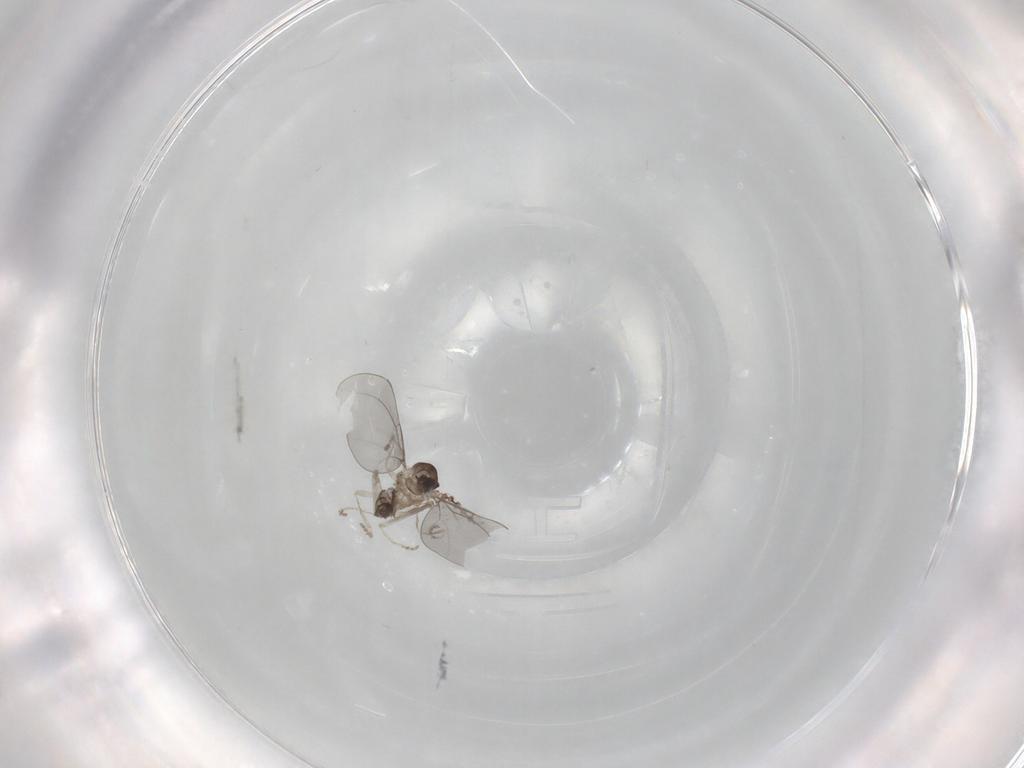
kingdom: Animalia
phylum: Arthropoda
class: Insecta
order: Diptera
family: Cecidomyiidae
